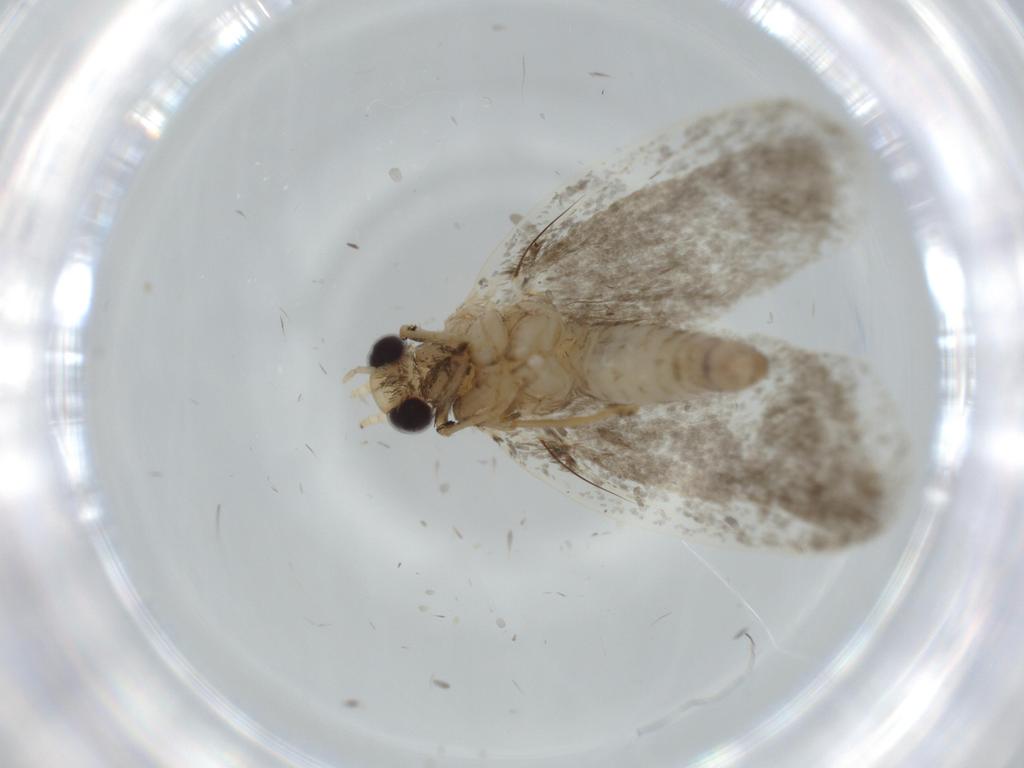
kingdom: Animalia
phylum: Arthropoda
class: Insecta
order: Lepidoptera
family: Psychidae
